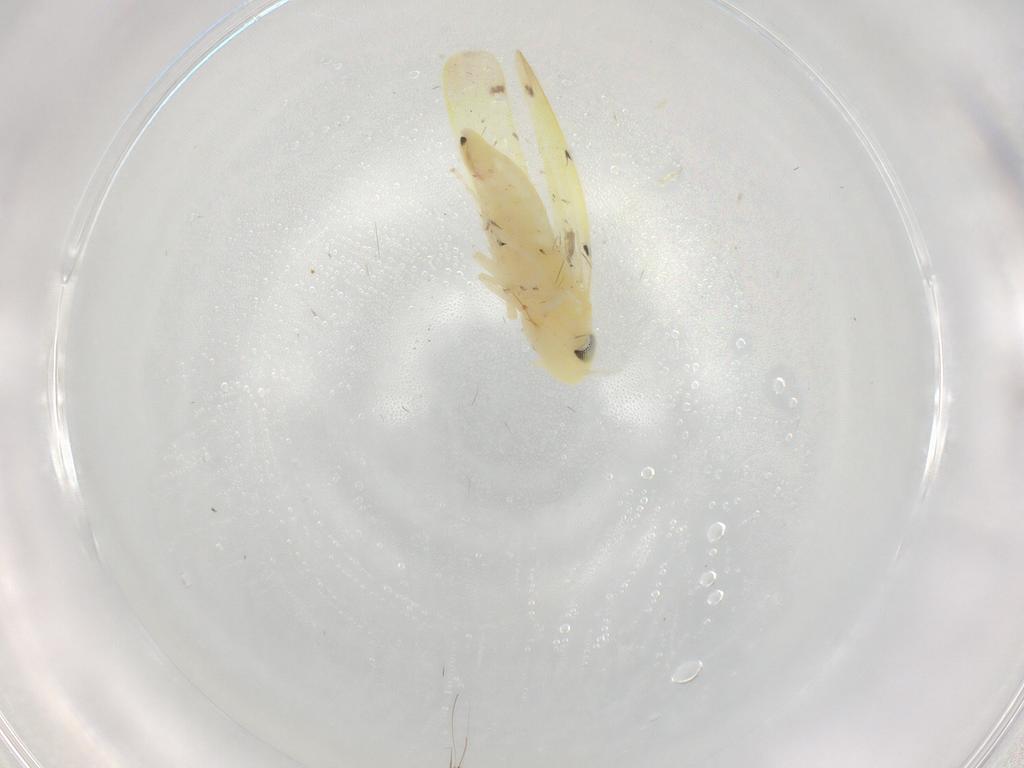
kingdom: Animalia
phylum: Arthropoda
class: Insecta
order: Hemiptera
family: Cicadellidae
